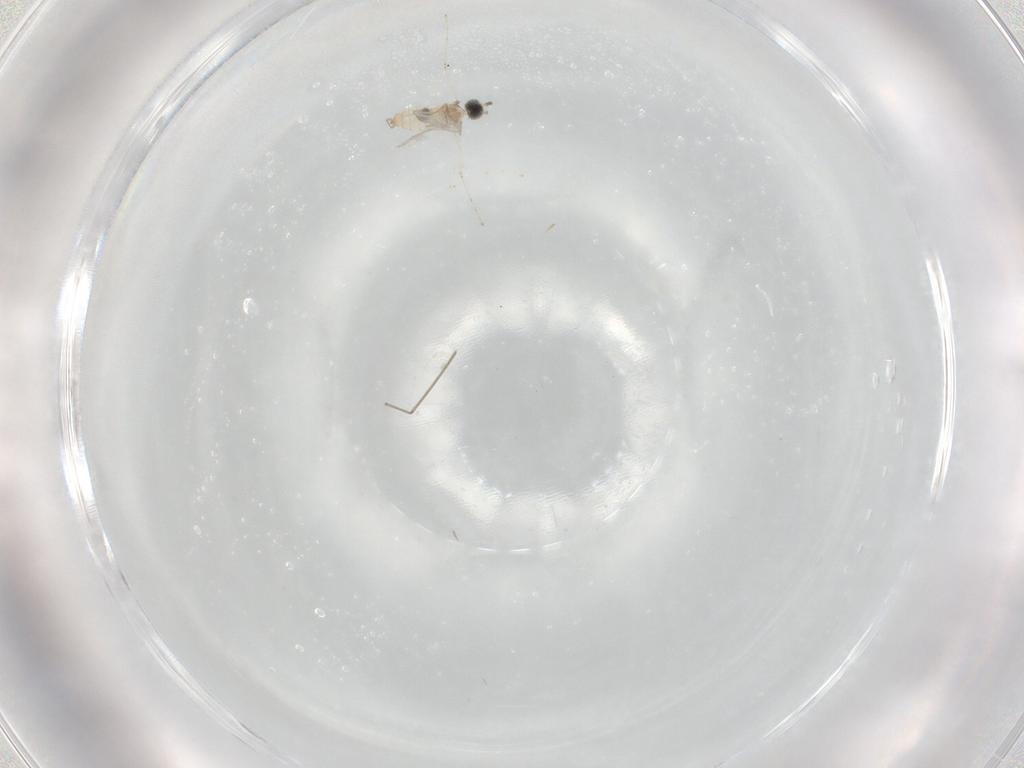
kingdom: Animalia
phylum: Arthropoda
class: Insecta
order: Diptera
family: Cecidomyiidae
